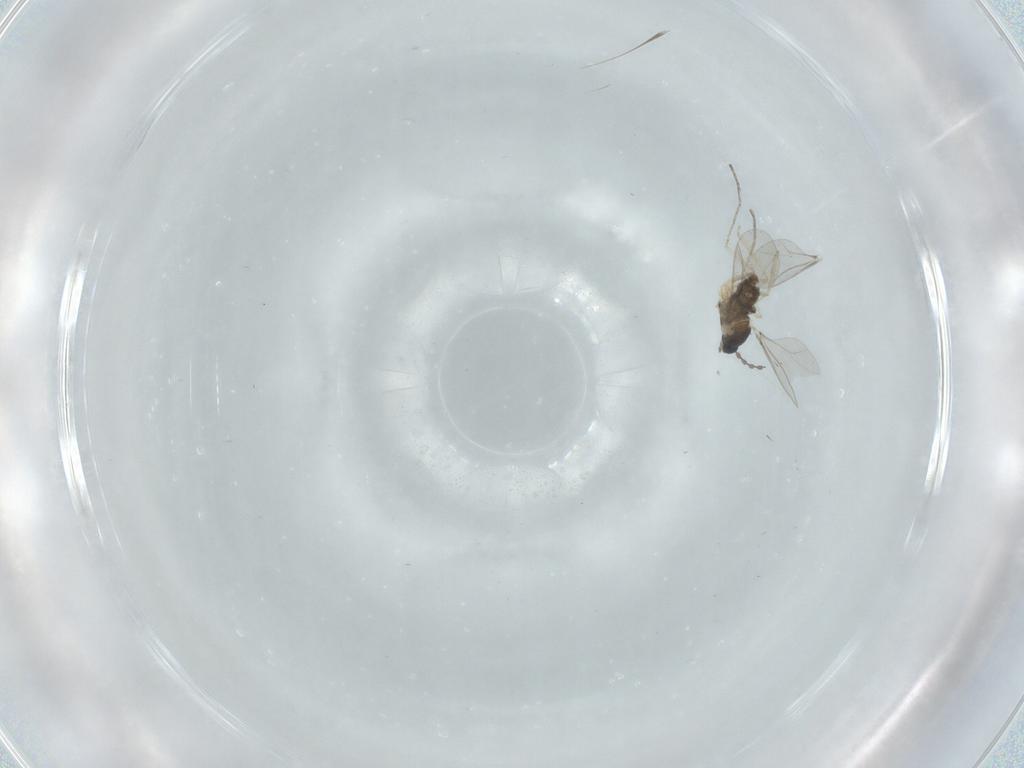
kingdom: Animalia
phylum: Arthropoda
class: Insecta
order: Diptera
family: Cecidomyiidae
